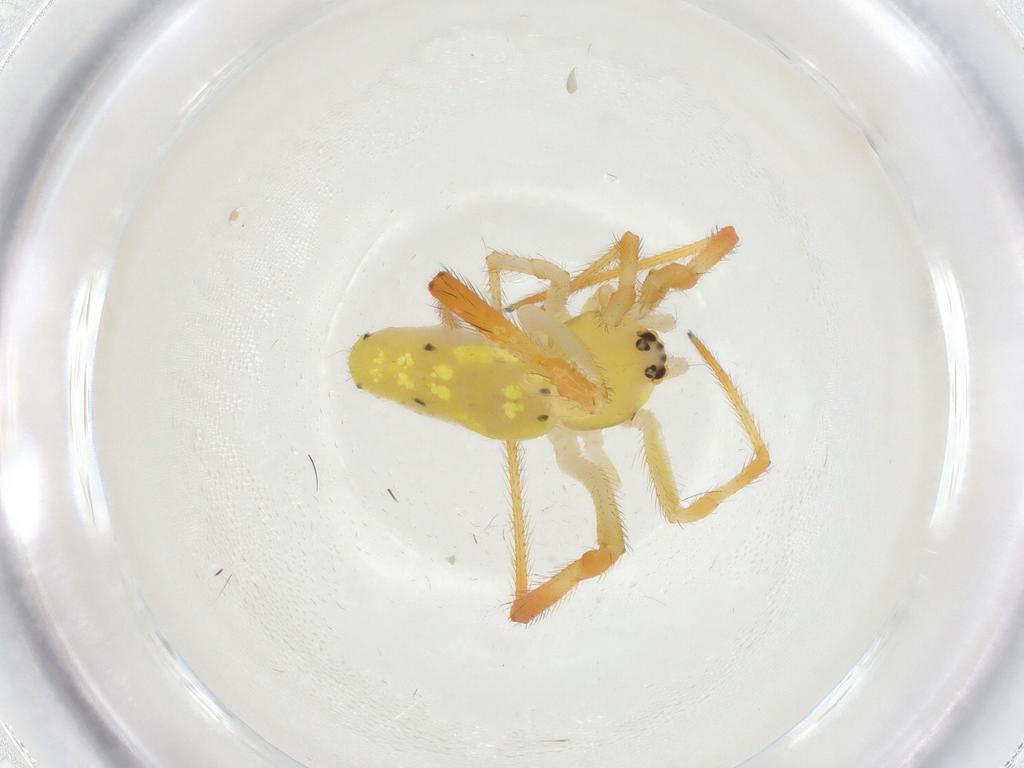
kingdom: Animalia
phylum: Arthropoda
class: Arachnida
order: Araneae
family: Theridiidae
